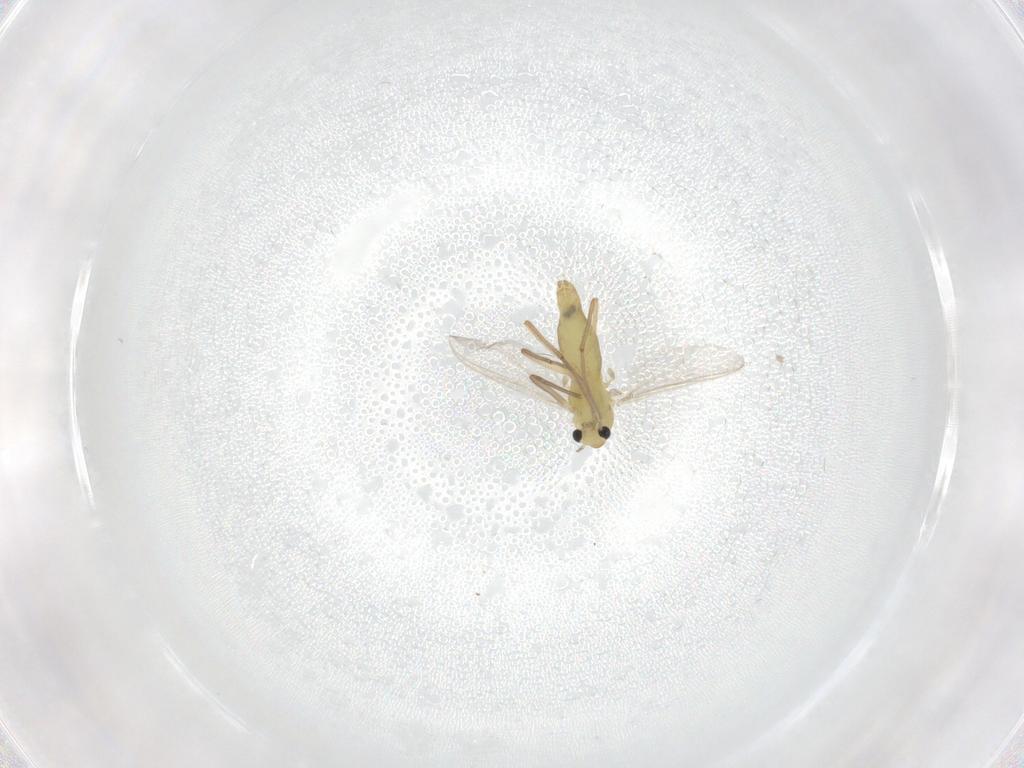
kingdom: Animalia
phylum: Arthropoda
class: Insecta
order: Diptera
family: Chironomidae
